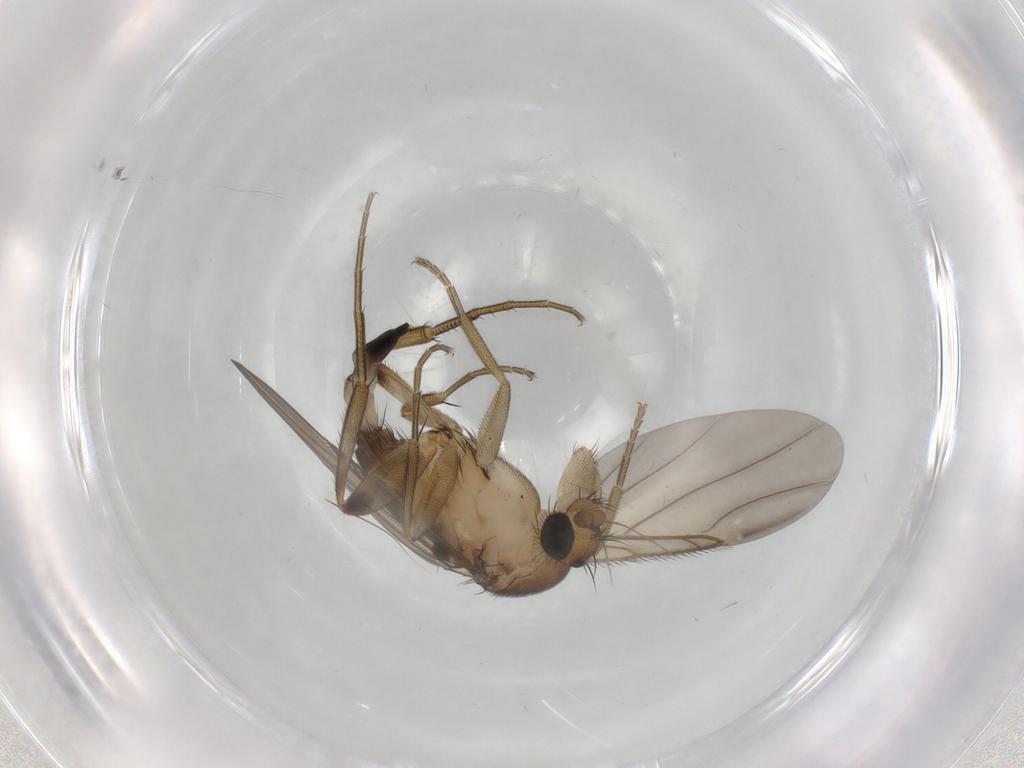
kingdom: Animalia
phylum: Arthropoda
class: Insecta
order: Diptera
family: Phoridae
